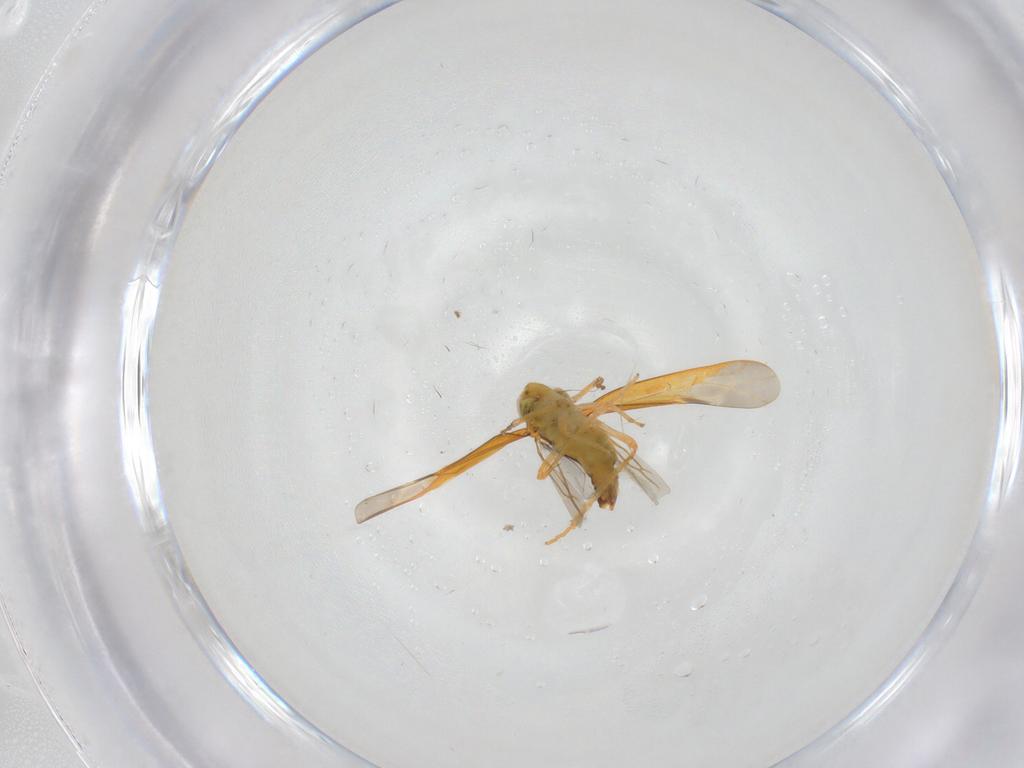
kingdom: Animalia
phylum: Arthropoda
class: Insecta
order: Hemiptera
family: Cicadellidae
